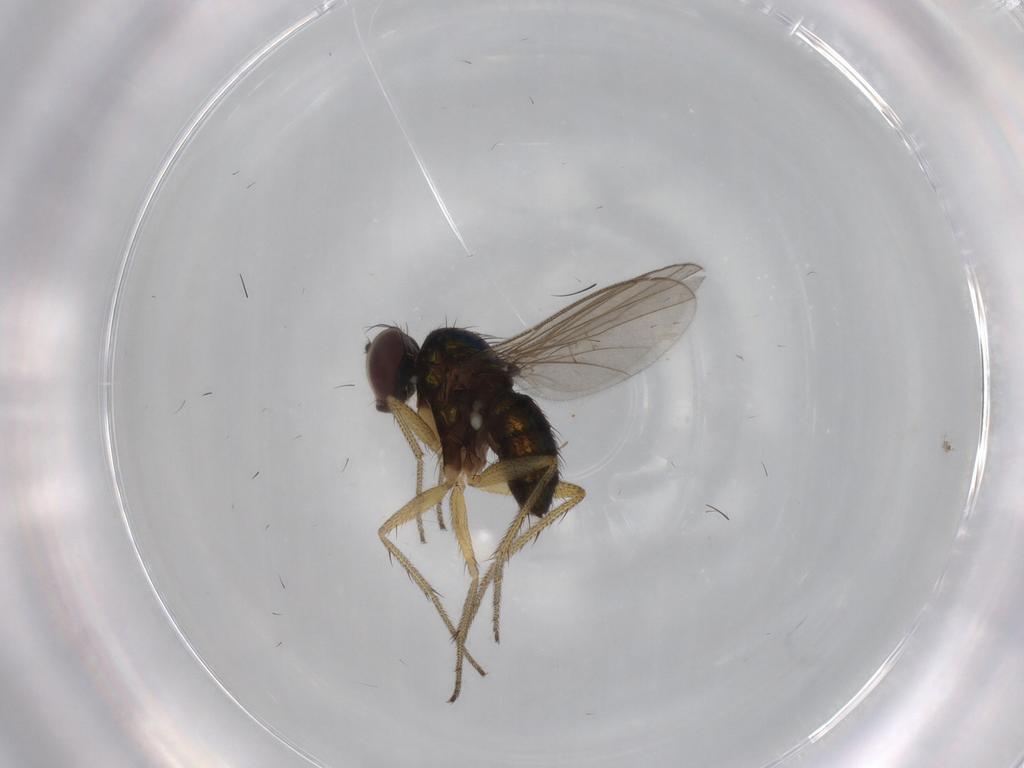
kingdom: Animalia
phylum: Arthropoda
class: Insecta
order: Diptera
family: Dolichopodidae
